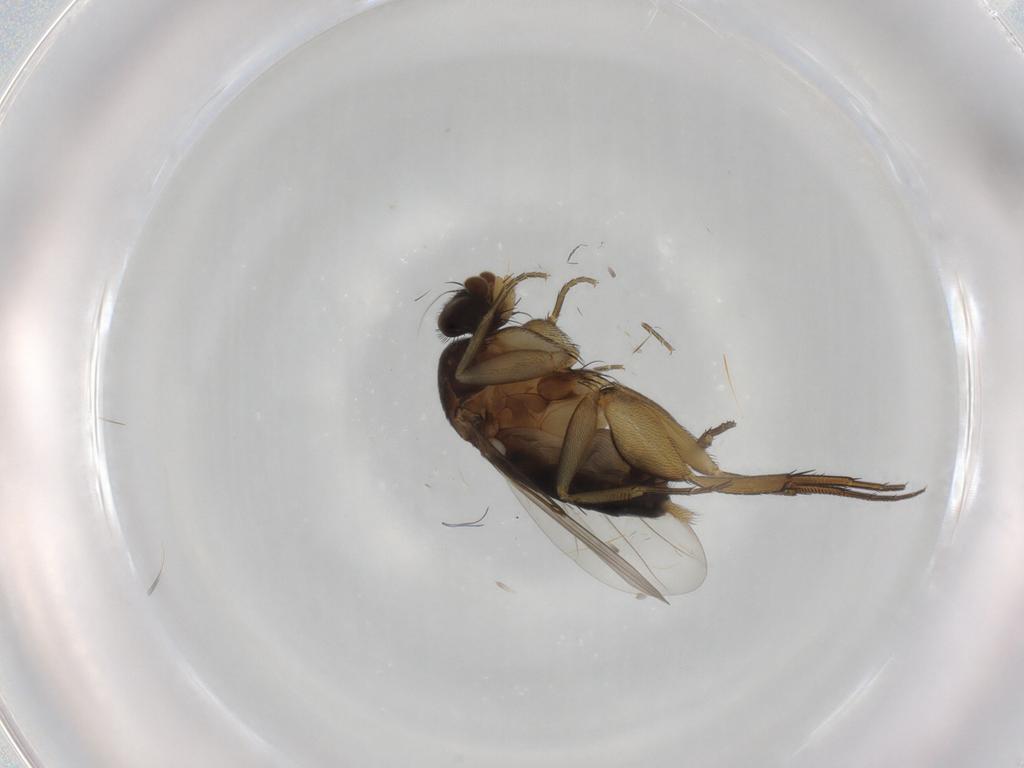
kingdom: Animalia
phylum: Arthropoda
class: Insecta
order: Diptera
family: Phoridae
